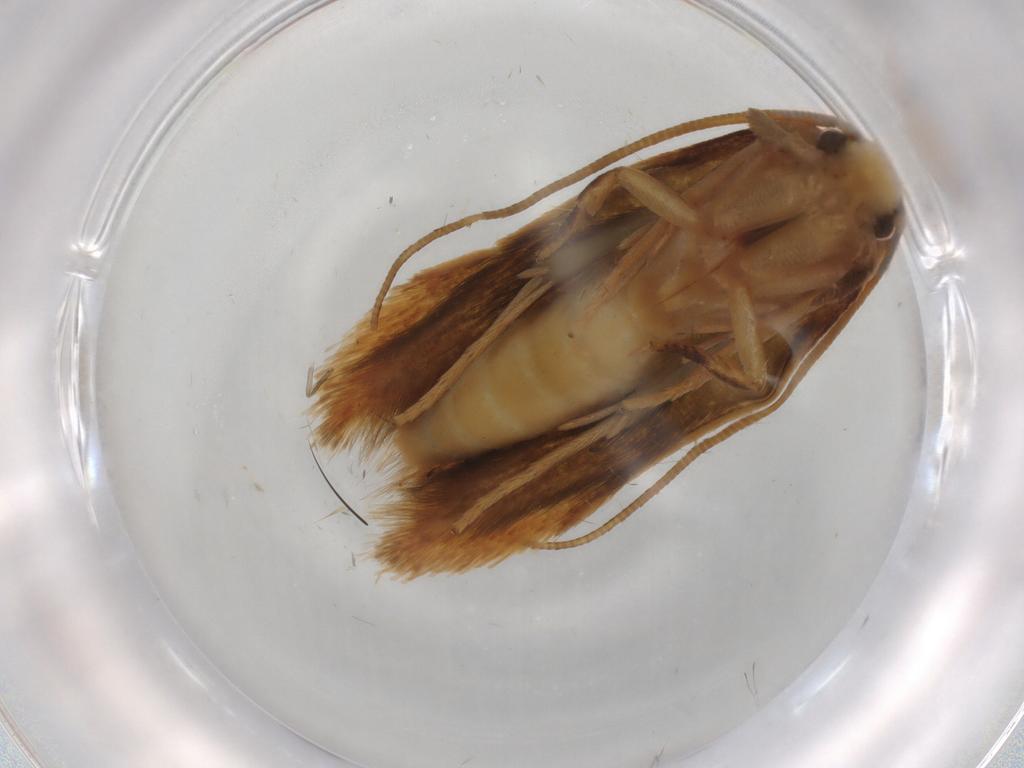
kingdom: Animalia
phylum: Arthropoda
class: Insecta
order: Lepidoptera
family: Tineidae
